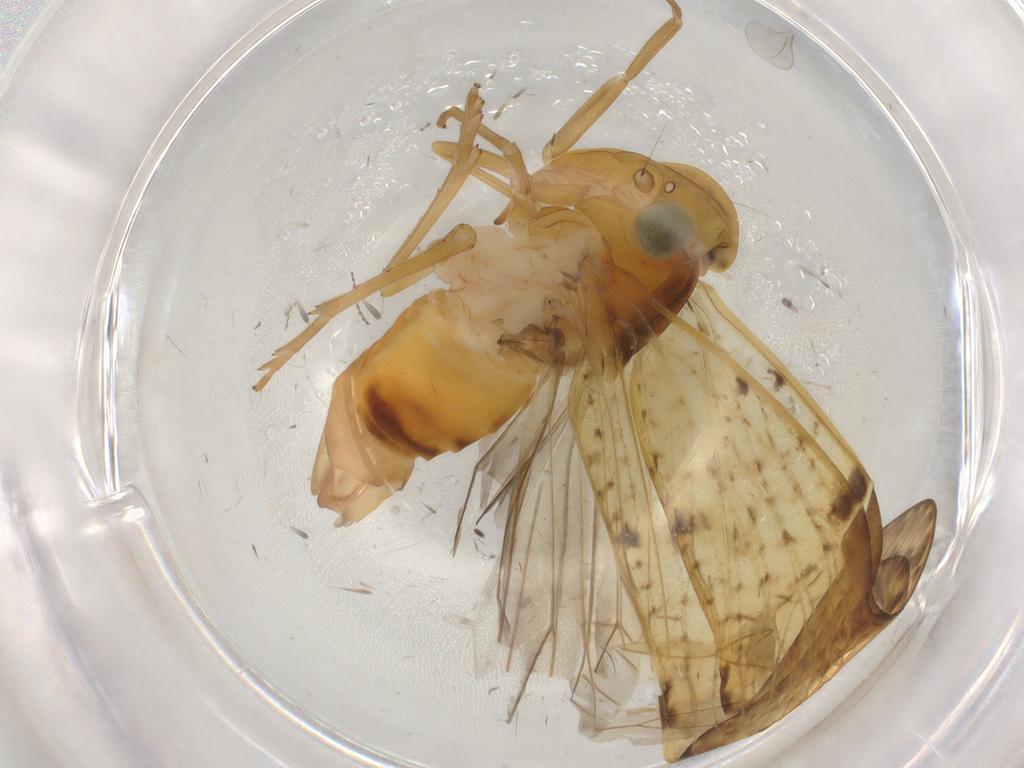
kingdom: Animalia
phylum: Arthropoda
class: Insecta
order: Hemiptera
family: Cixiidae
